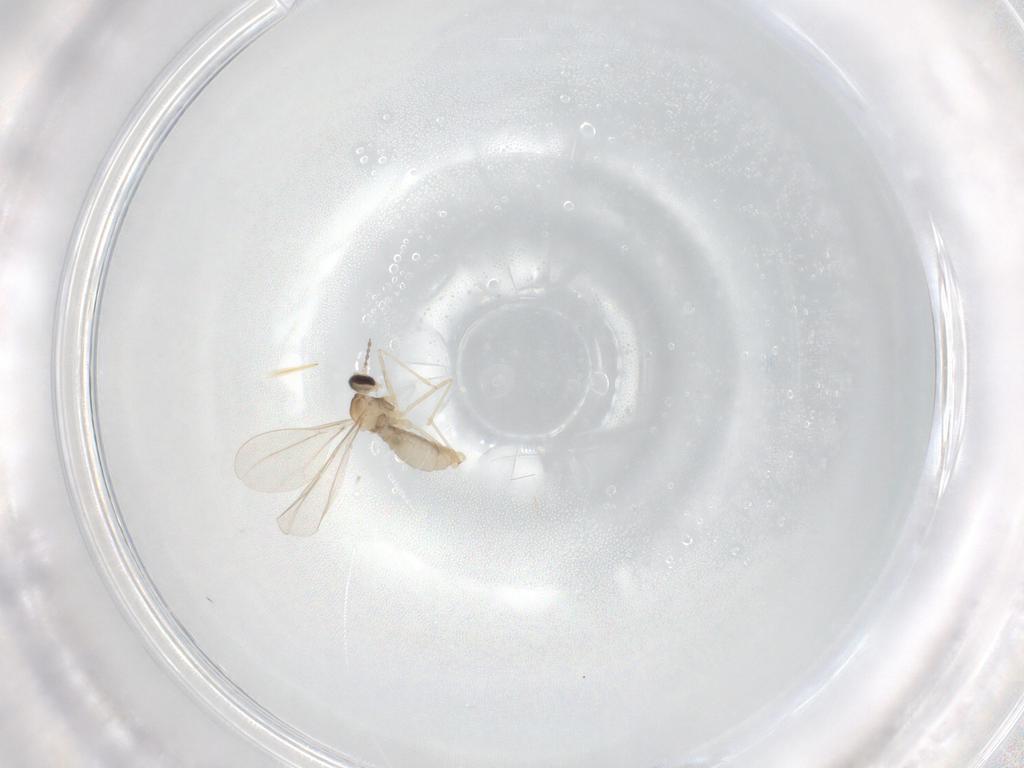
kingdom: Animalia
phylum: Arthropoda
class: Insecta
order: Diptera
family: Cecidomyiidae
